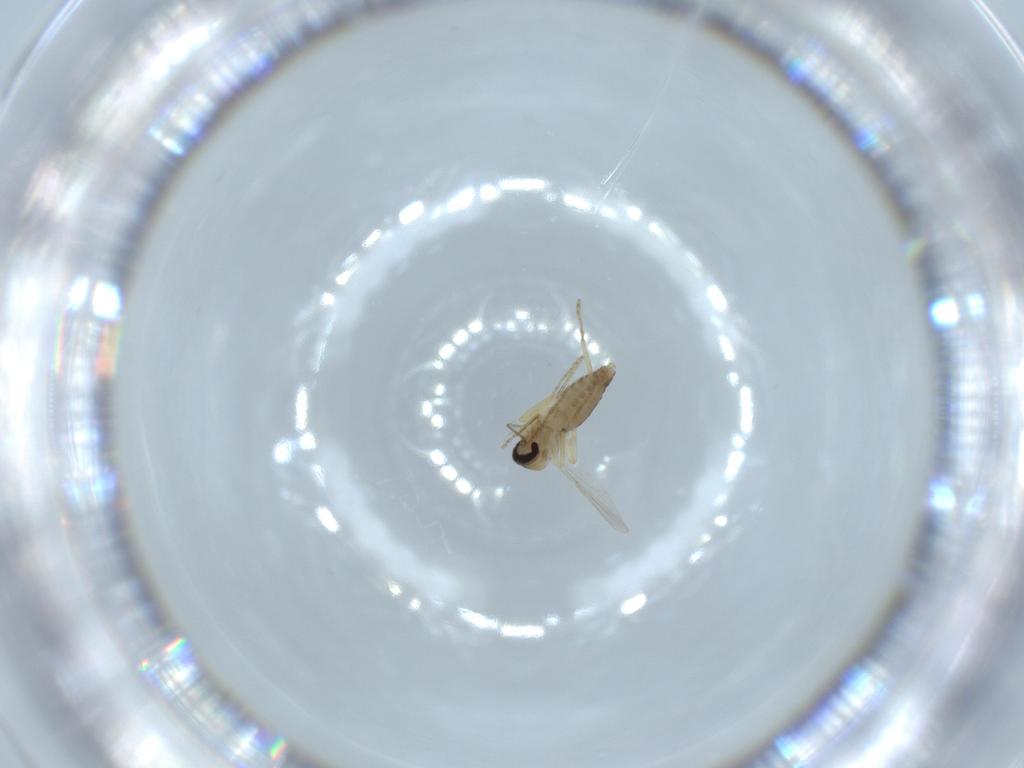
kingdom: Animalia
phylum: Arthropoda
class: Insecta
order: Diptera
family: Ceratopogonidae
